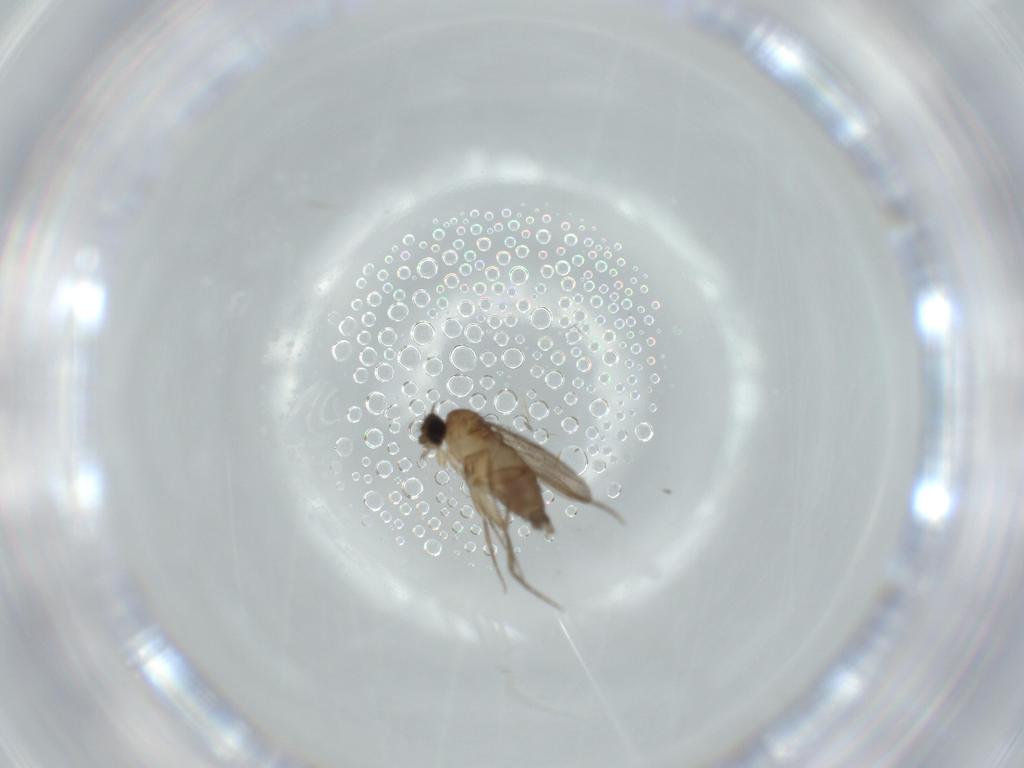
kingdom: Animalia
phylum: Arthropoda
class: Insecta
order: Diptera
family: Phoridae
